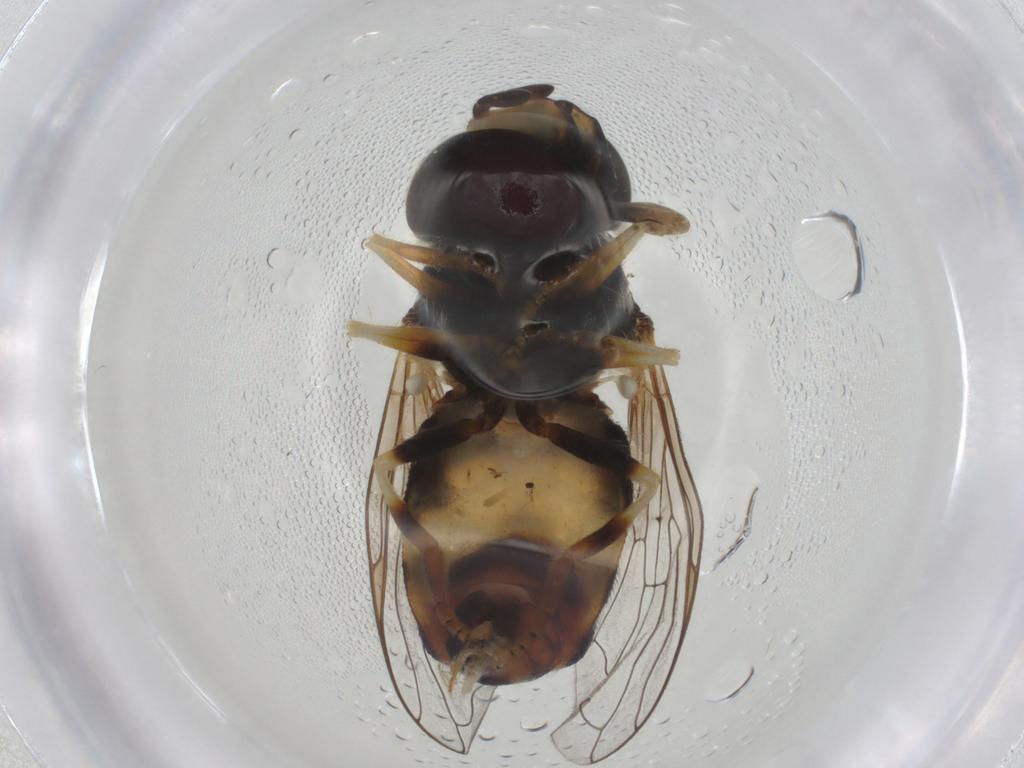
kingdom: Animalia
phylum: Arthropoda
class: Insecta
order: Diptera
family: Syrphidae
